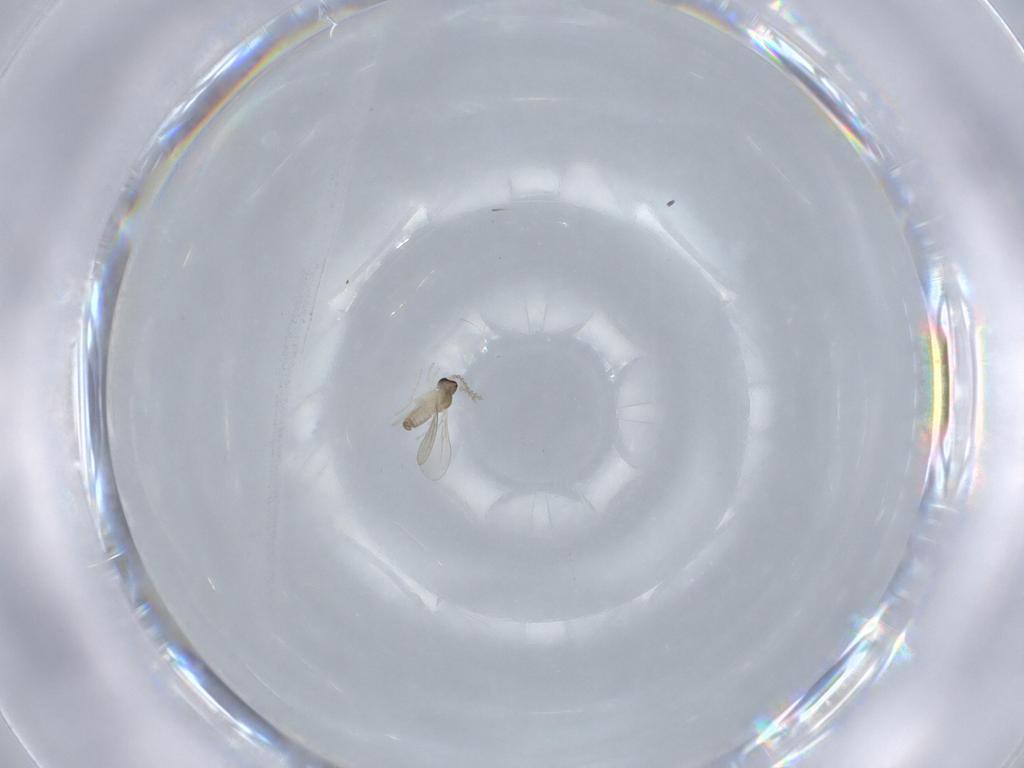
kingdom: Animalia
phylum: Arthropoda
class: Insecta
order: Diptera
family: Cecidomyiidae
